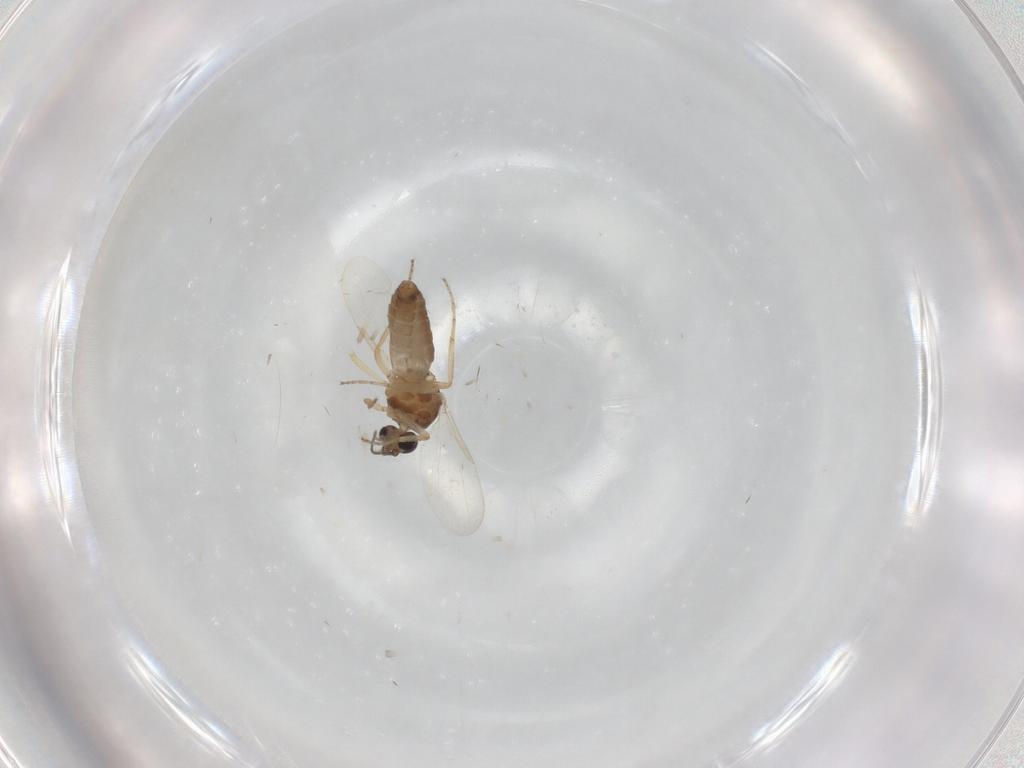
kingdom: Animalia
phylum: Arthropoda
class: Insecta
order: Diptera
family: Ceratopogonidae
